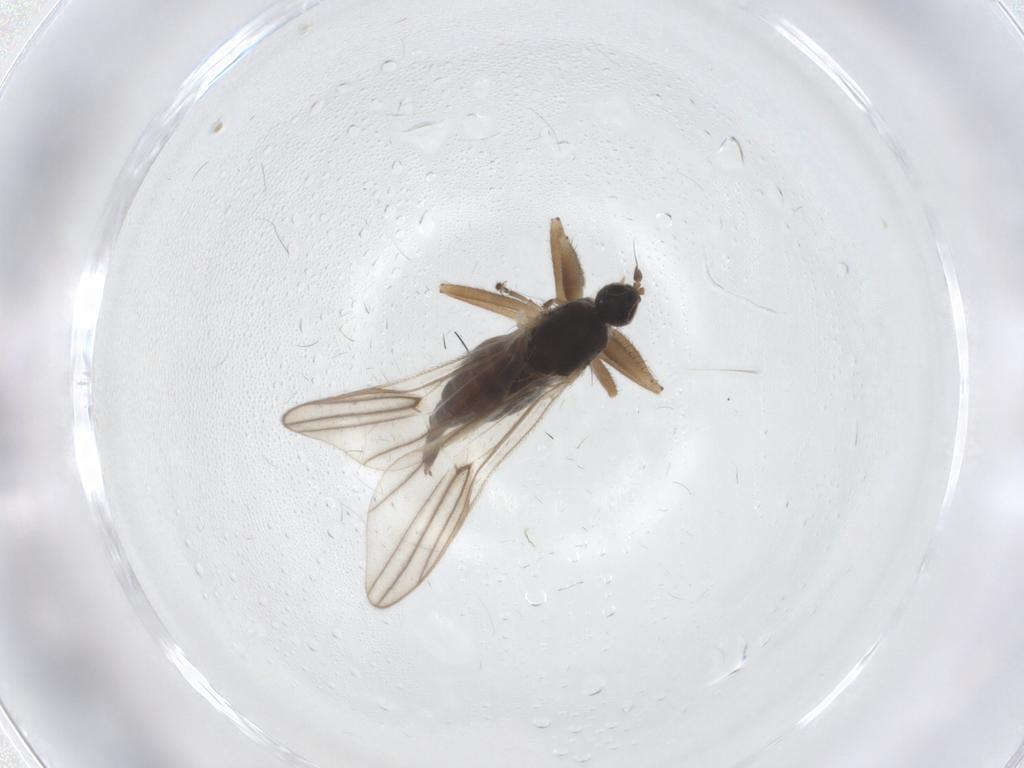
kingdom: Animalia
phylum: Arthropoda
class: Insecta
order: Diptera
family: Hybotidae
